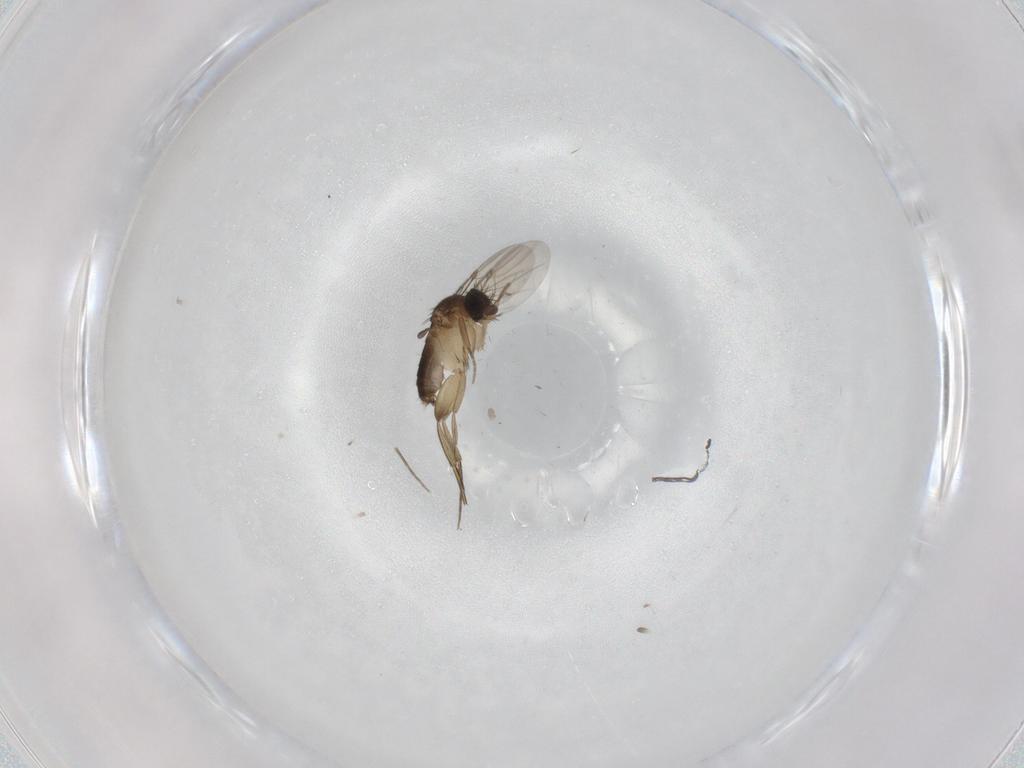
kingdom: Animalia
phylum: Arthropoda
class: Insecta
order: Diptera
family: Phoridae
